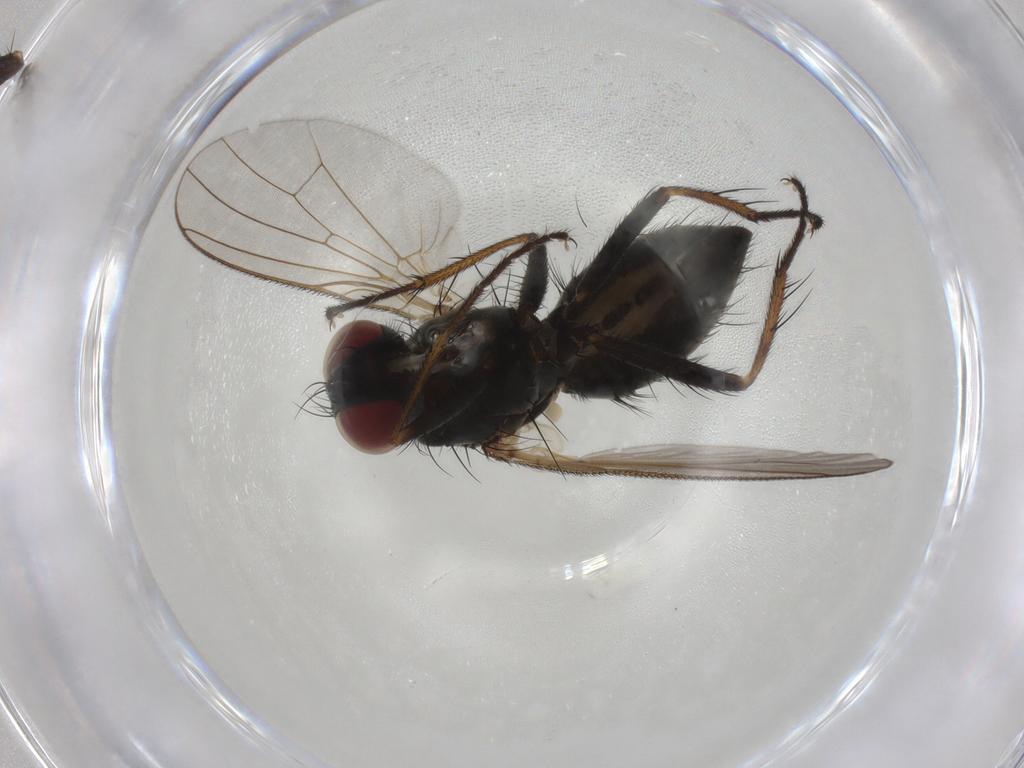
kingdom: Animalia
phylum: Arthropoda
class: Insecta
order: Diptera
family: Muscidae
